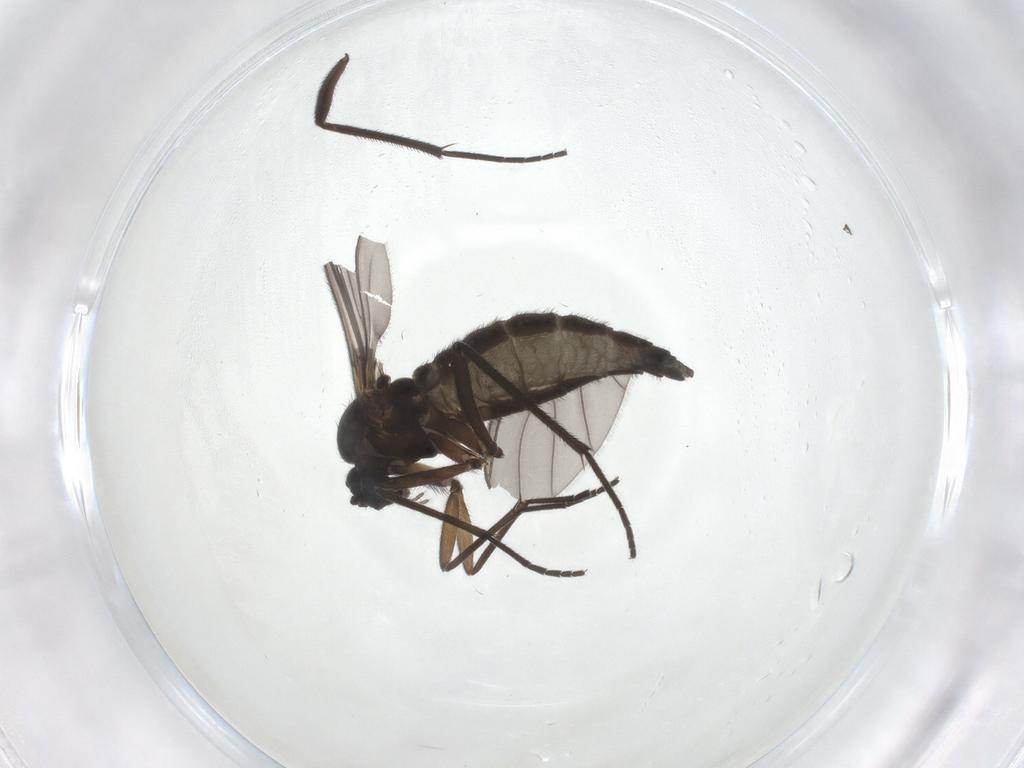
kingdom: Animalia
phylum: Arthropoda
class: Insecta
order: Diptera
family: Sciaridae
